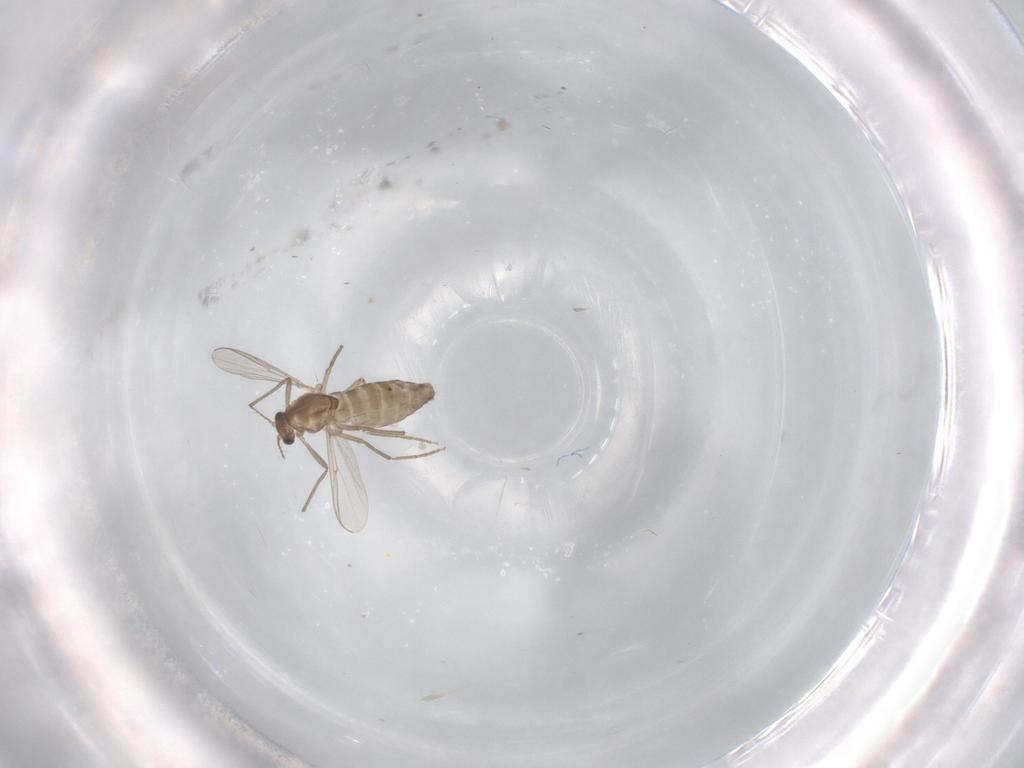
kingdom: Animalia
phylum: Arthropoda
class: Insecta
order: Diptera
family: Chironomidae
